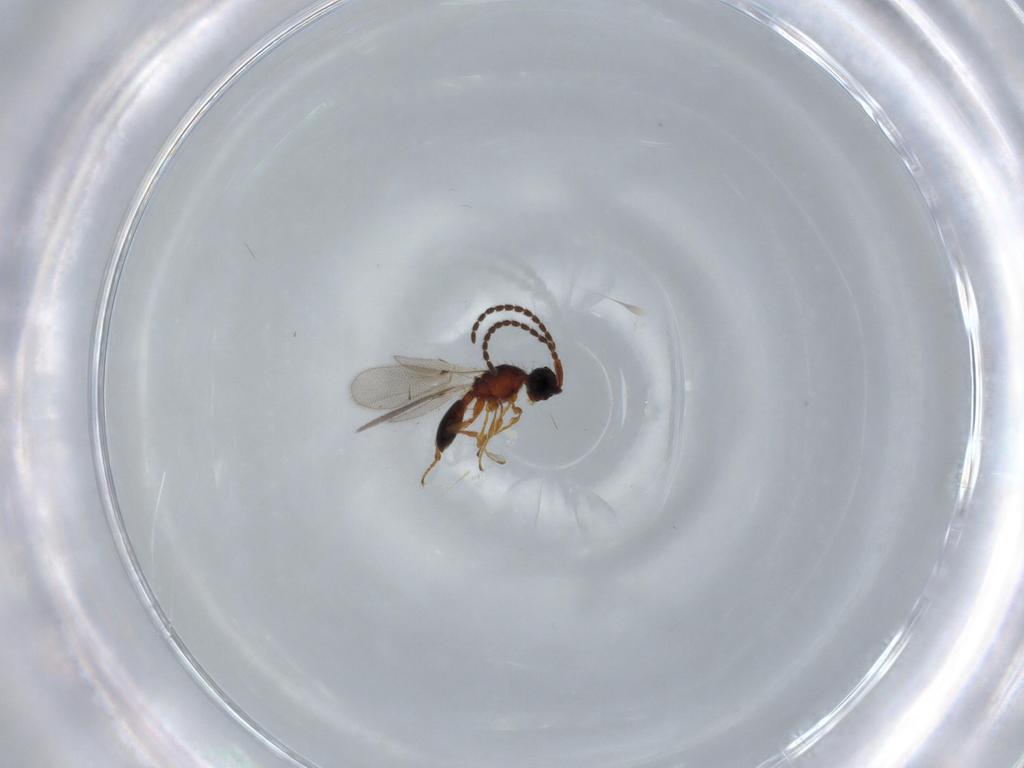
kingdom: Animalia
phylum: Arthropoda
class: Insecta
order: Hymenoptera
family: Diapriidae
